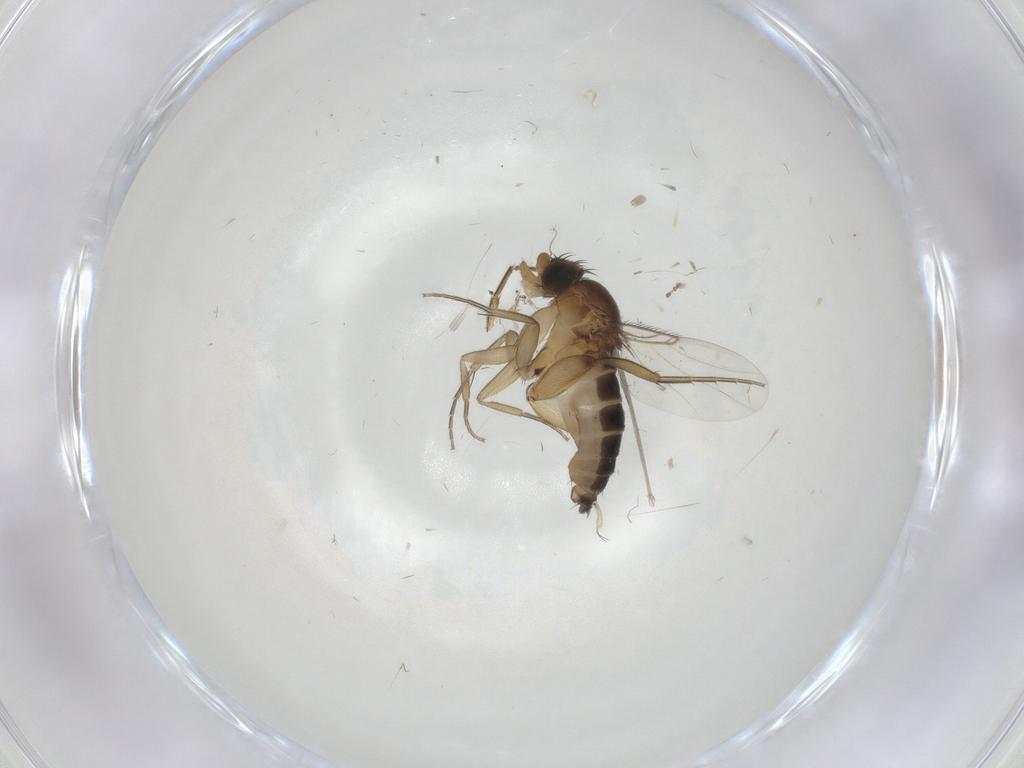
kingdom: Animalia
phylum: Arthropoda
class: Insecta
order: Diptera
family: Phoridae
